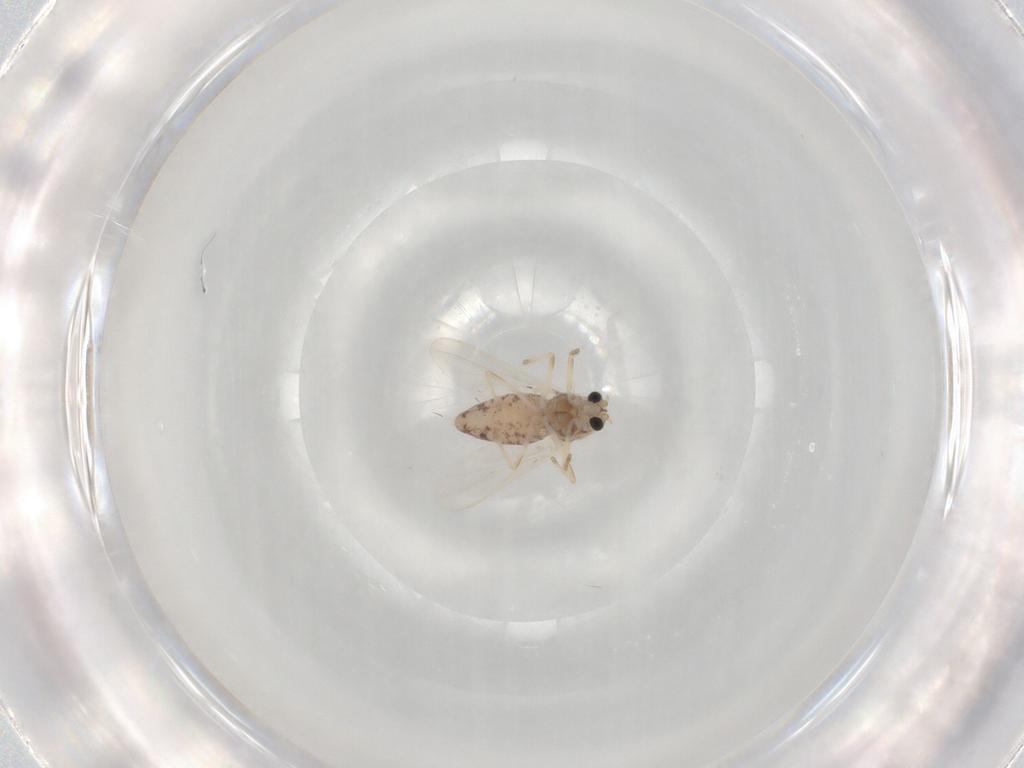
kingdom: Animalia
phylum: Arthropoda
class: Insecta
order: Diptera
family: Chironomidae
